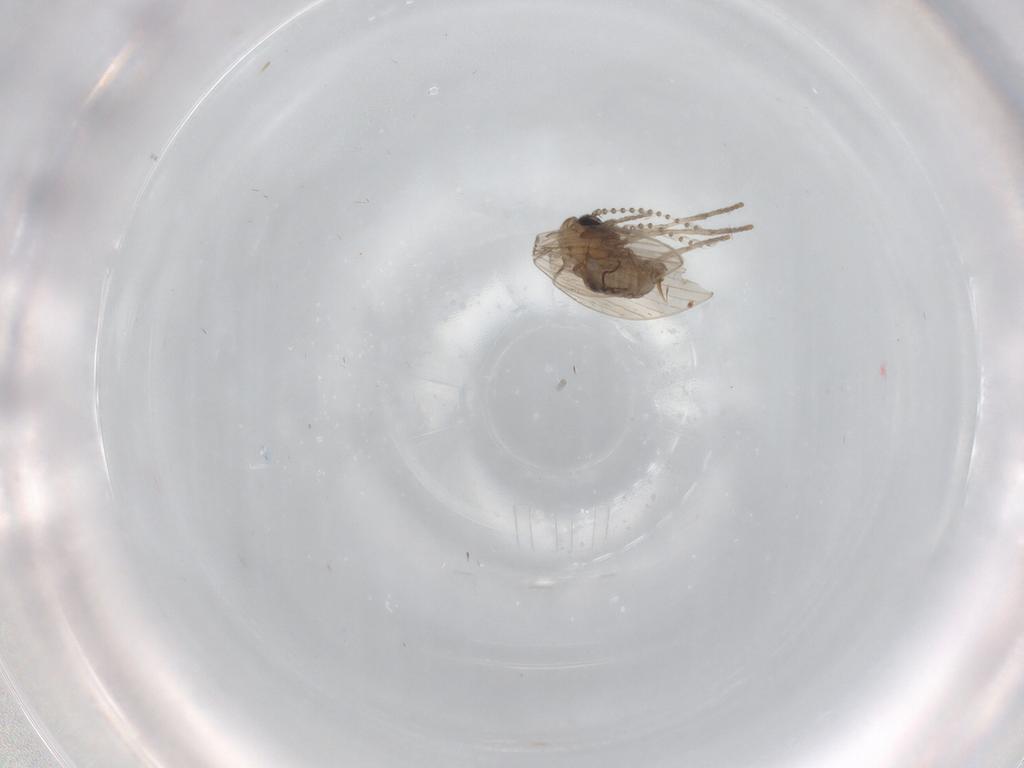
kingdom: Animalia
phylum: Arthropoda
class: Insecta
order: Diptera
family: Psychodidae
